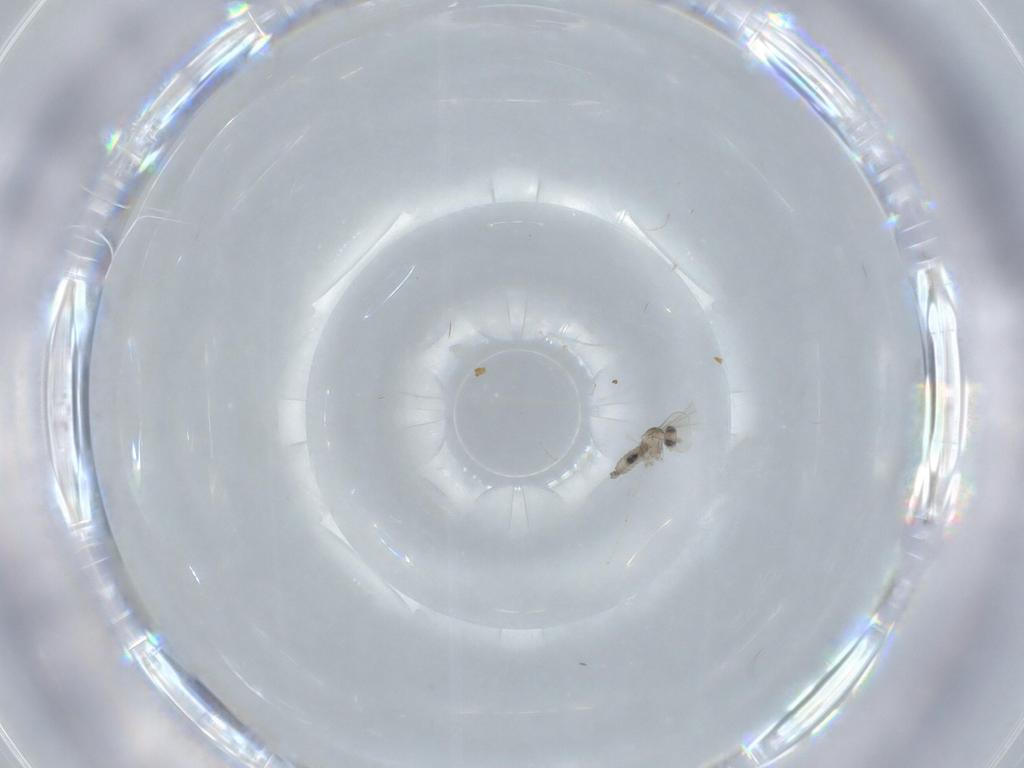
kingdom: Animalia
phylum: Arthropoda
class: Insecta
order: Diptera
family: Cecidomyiidae
